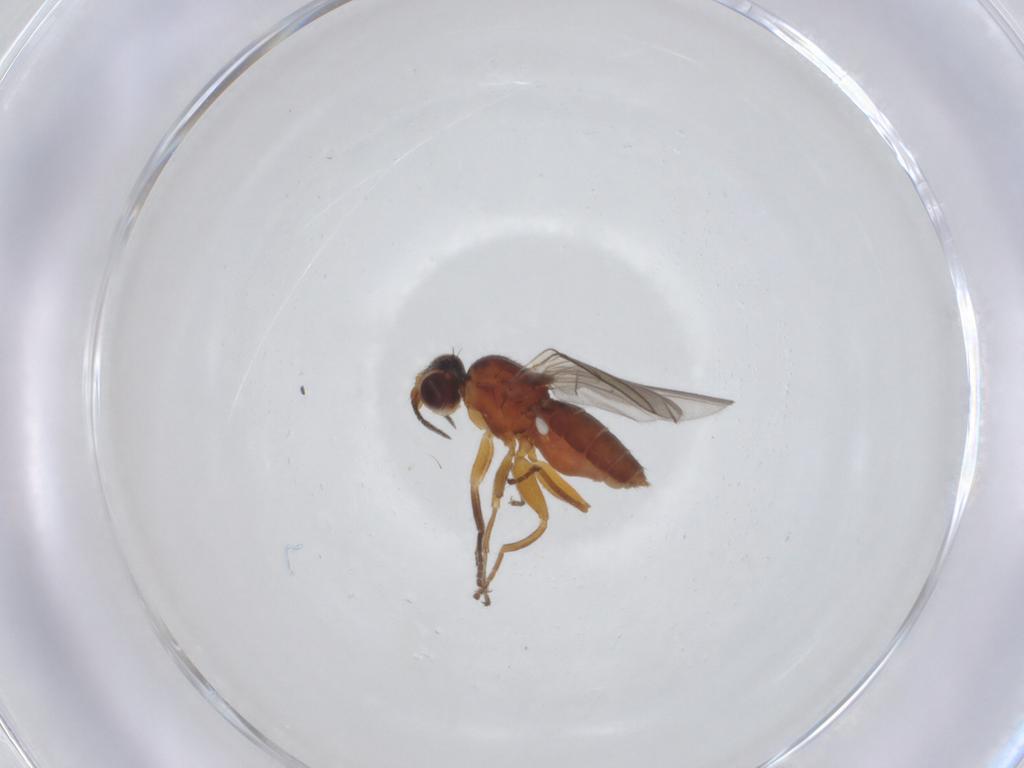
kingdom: Animalia
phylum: Arthropoda
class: Insecta
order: Diptera
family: Chloropidae
